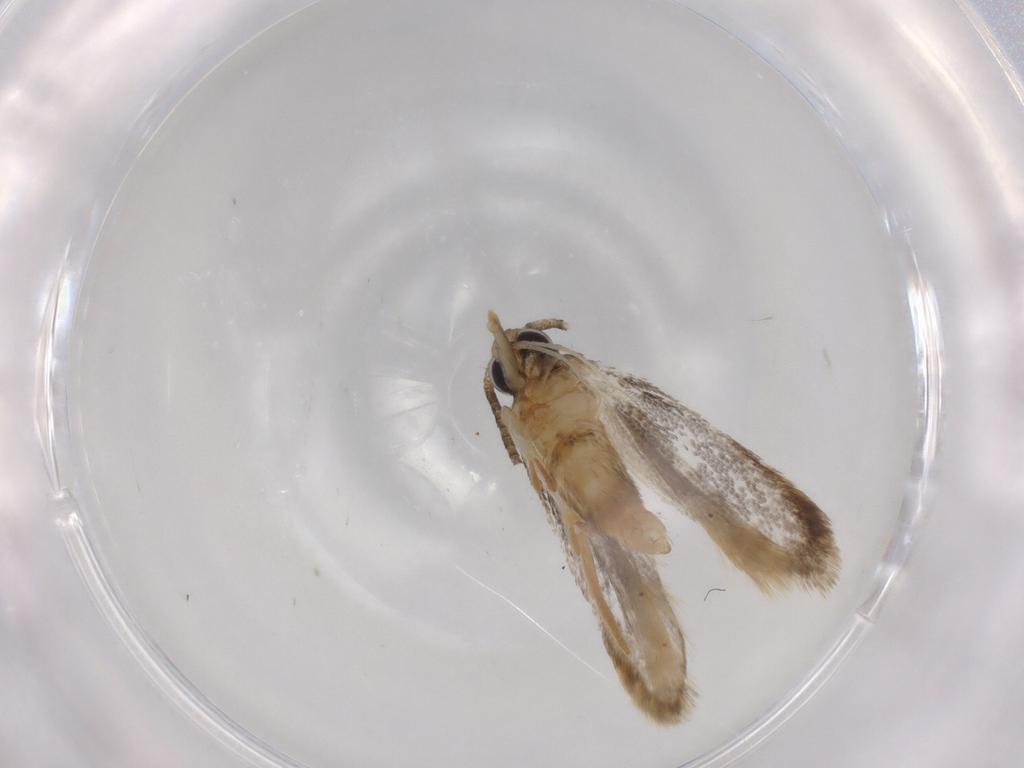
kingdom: Animalia
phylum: Arthropoda
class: Insecta
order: Lepidoptera
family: Autostichidae
